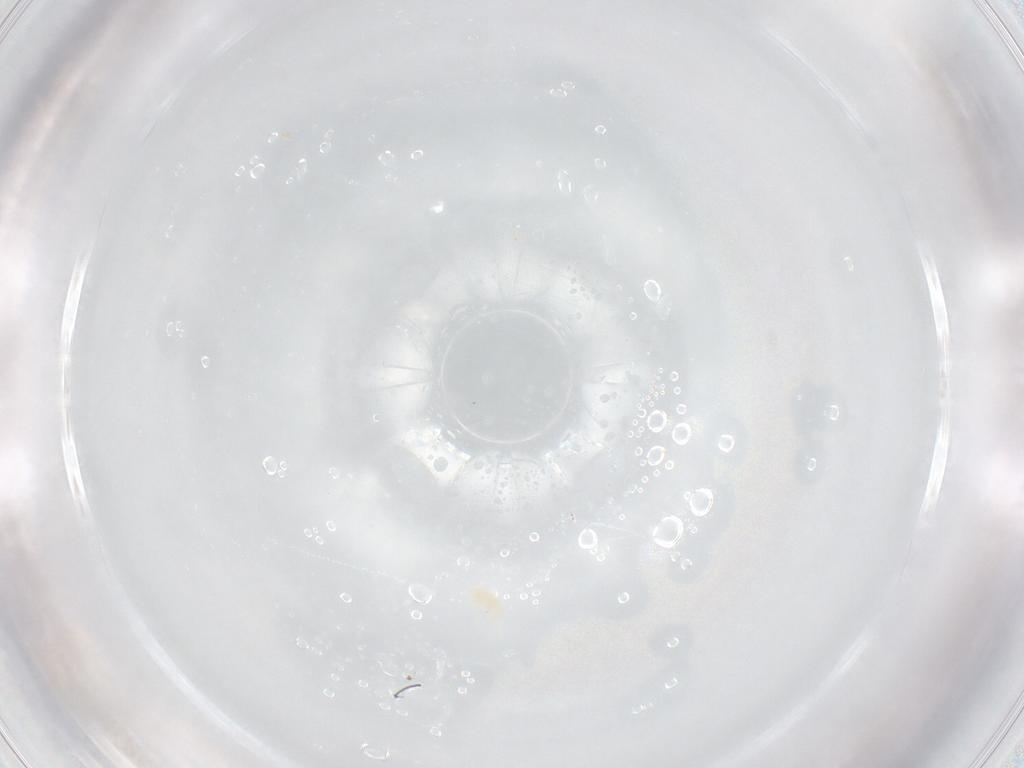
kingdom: Animalia
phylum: Arthropoda
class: Arachnida
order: Trombidiformes
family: Eupodidae
